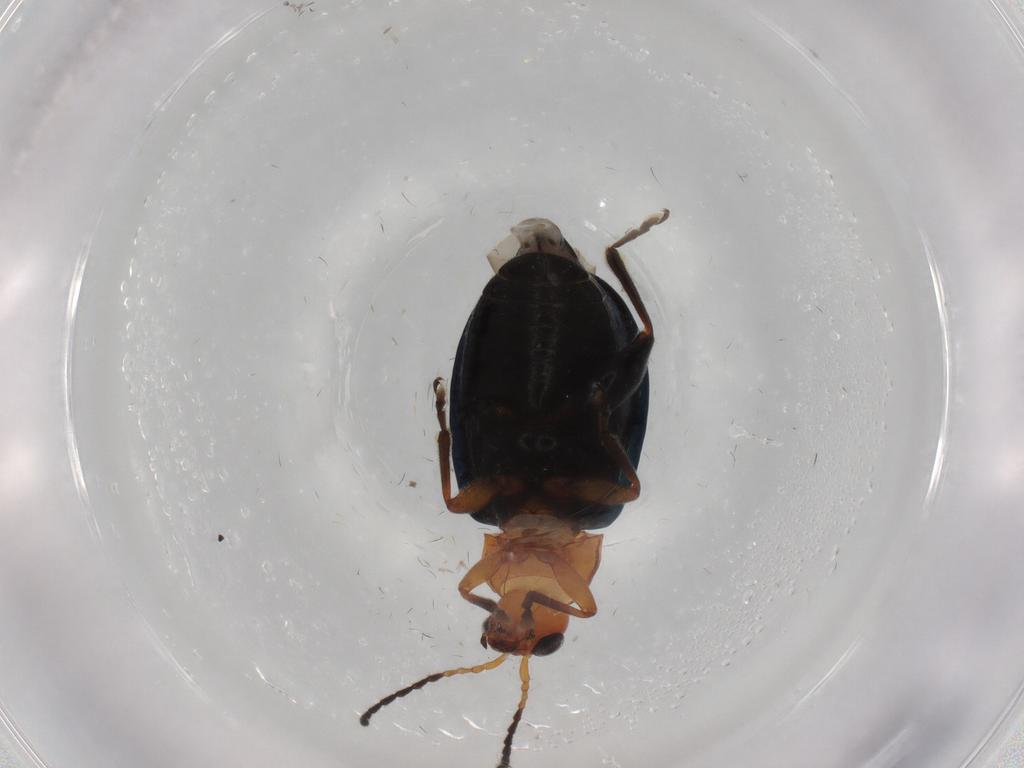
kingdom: Animalia
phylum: Arthropoda
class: Insecta
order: Coleoptera
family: Chrysomelidae
